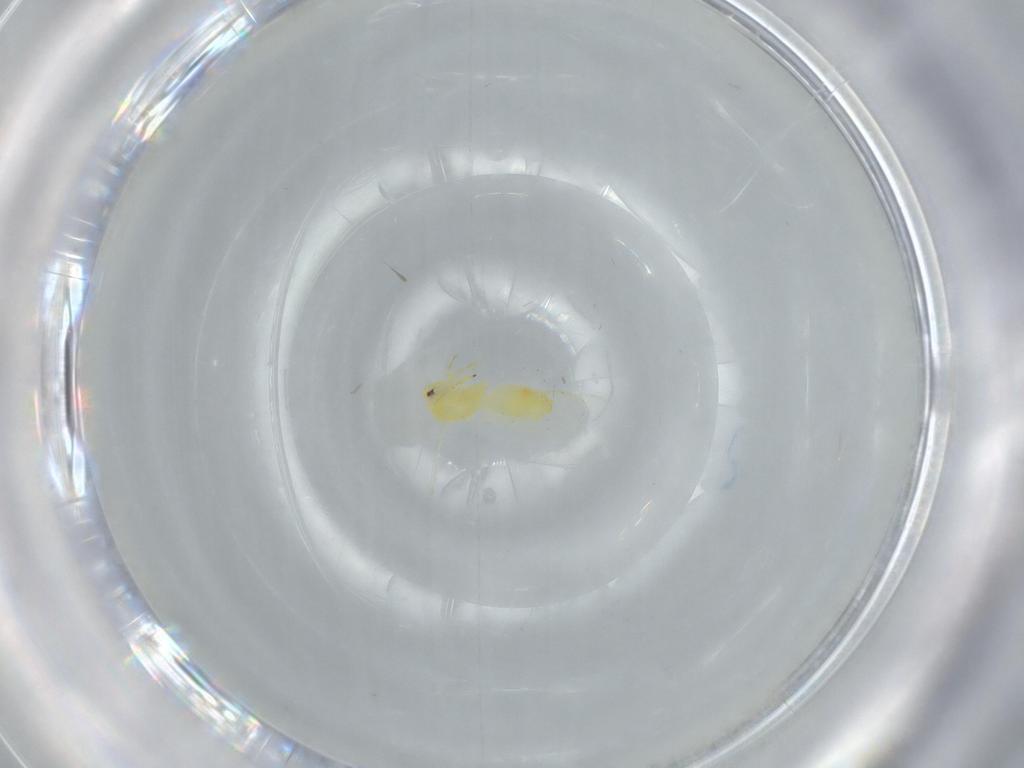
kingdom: Animalia
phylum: Arthropoda
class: Insecta
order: Hemiptera
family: Aleyrodidae
